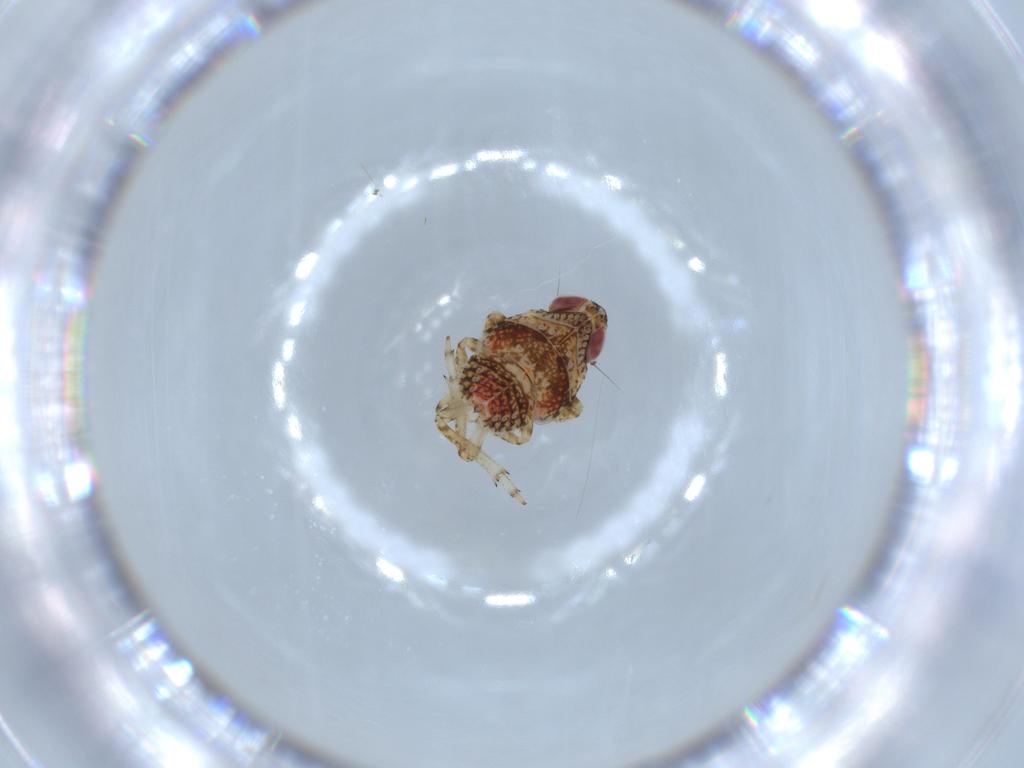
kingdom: Animalia
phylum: Arthropoda
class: Insecta
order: Hemiptera
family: Issidae
